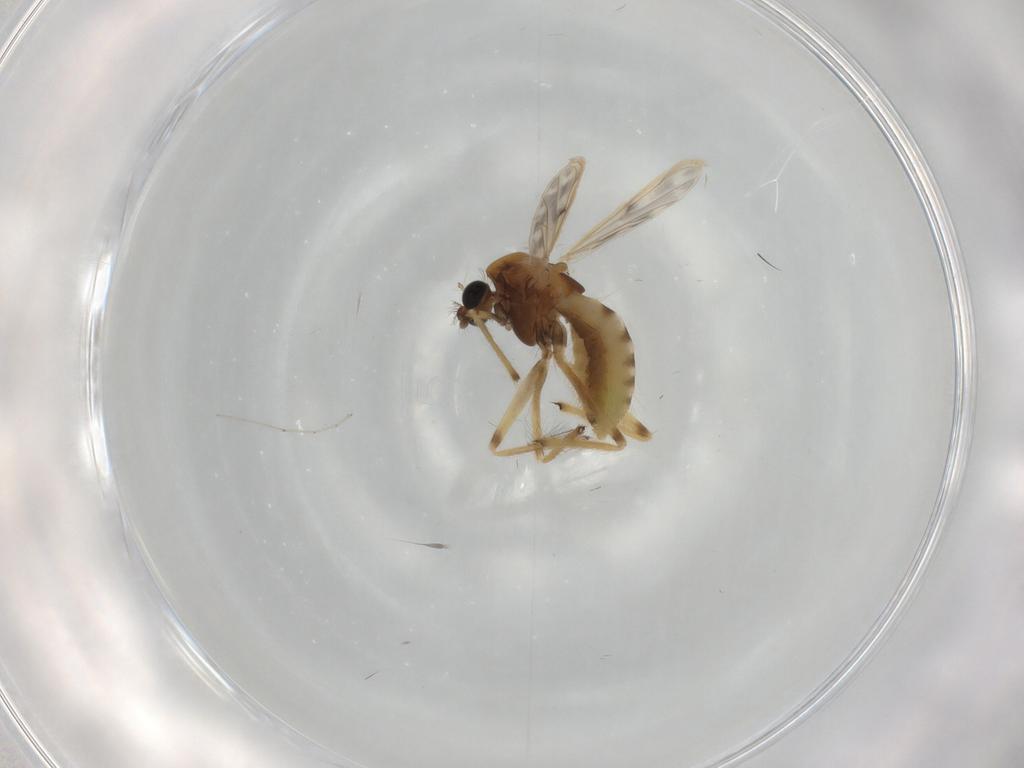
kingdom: Animalia
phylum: Arthropoda
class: Insecta
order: Diptera
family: Chironomidae
